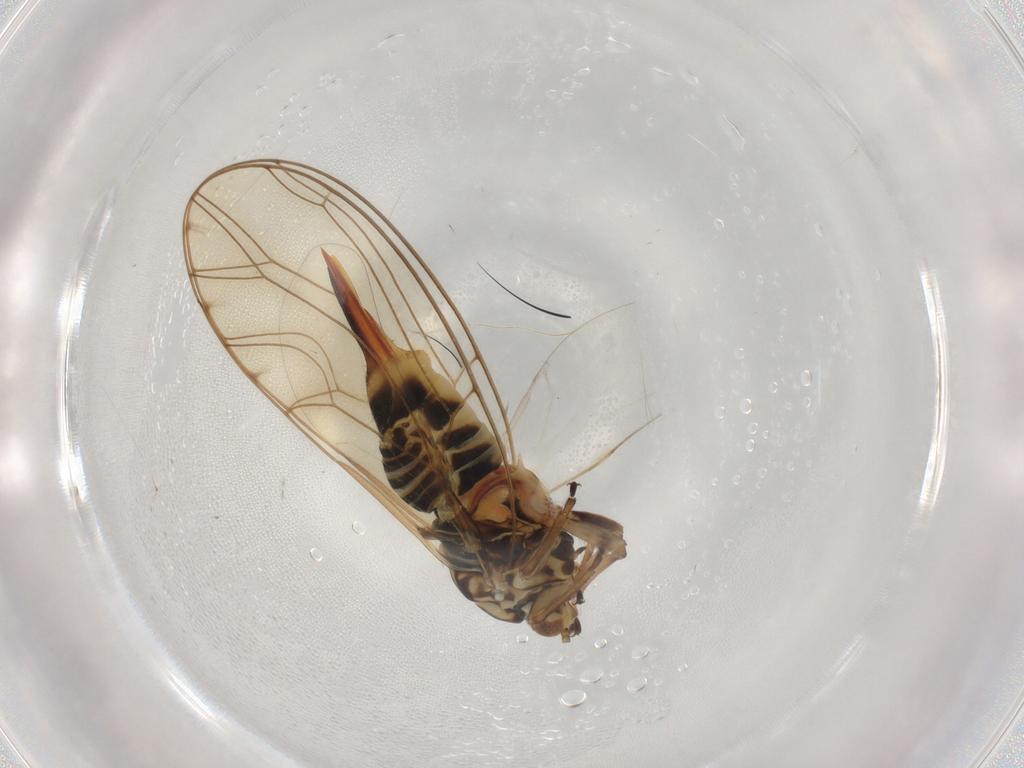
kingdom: Animalia
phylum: Arthropoda
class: Insecta
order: Hemiptera
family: Triozidae
